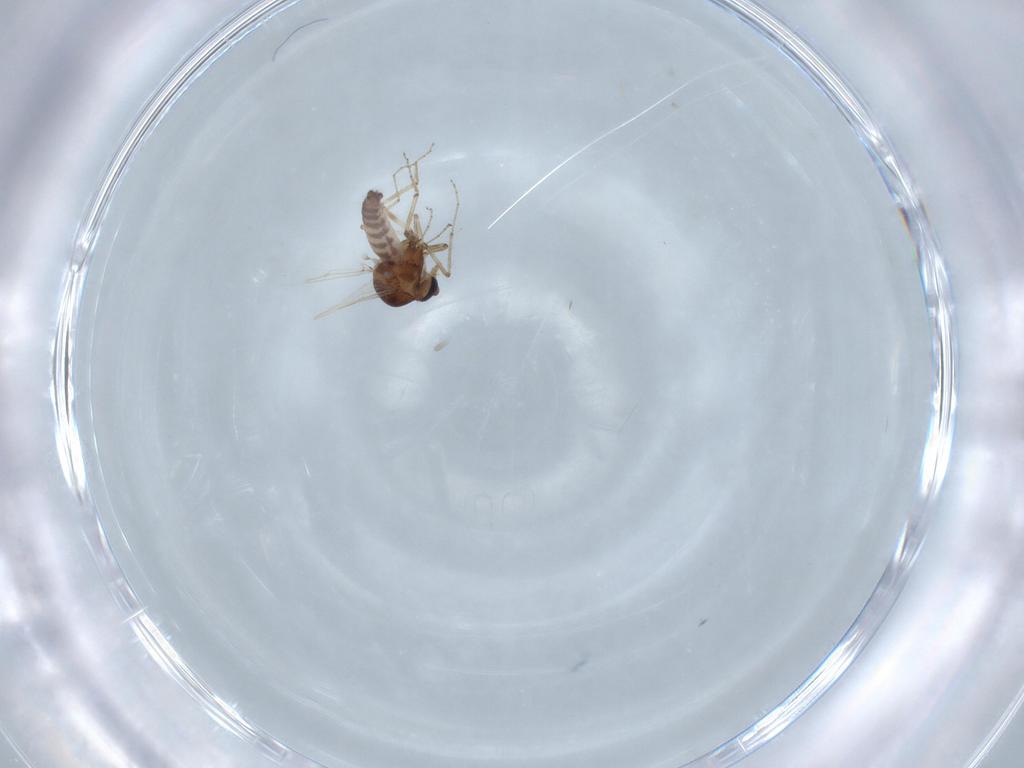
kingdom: Animalia
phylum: Arthropoda
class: Insecta
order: Diptera
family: Ceratopogonidae
